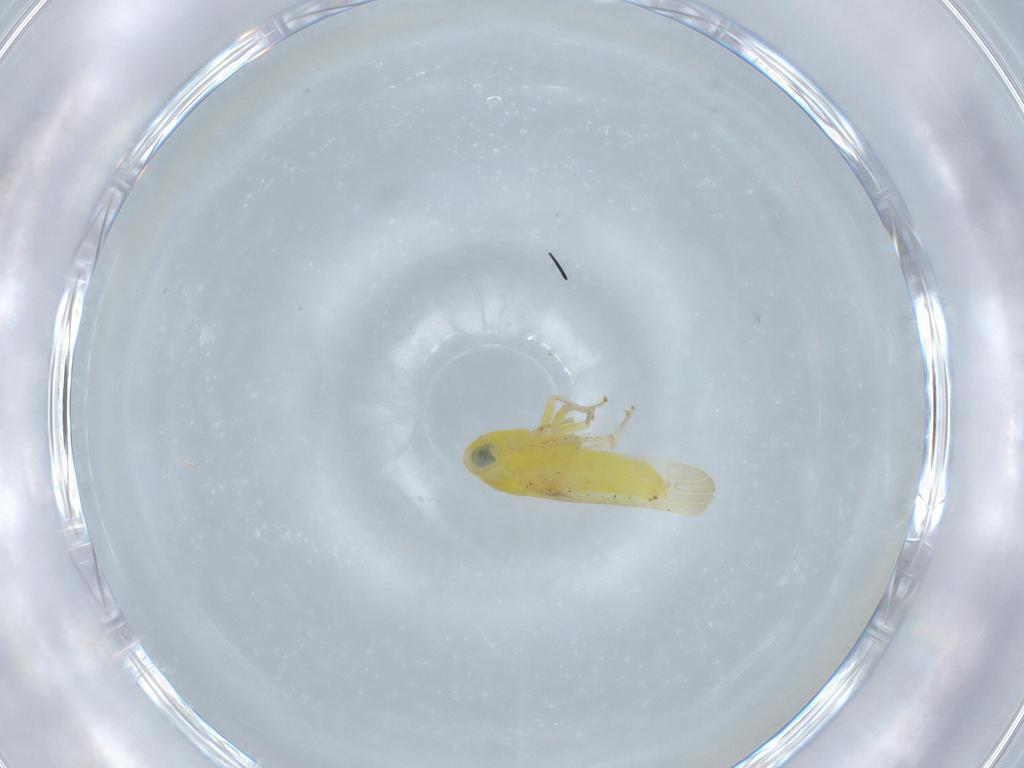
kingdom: Animalia
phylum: Arthropoda
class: Insecta
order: Hemiptera
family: Cicadellidae
